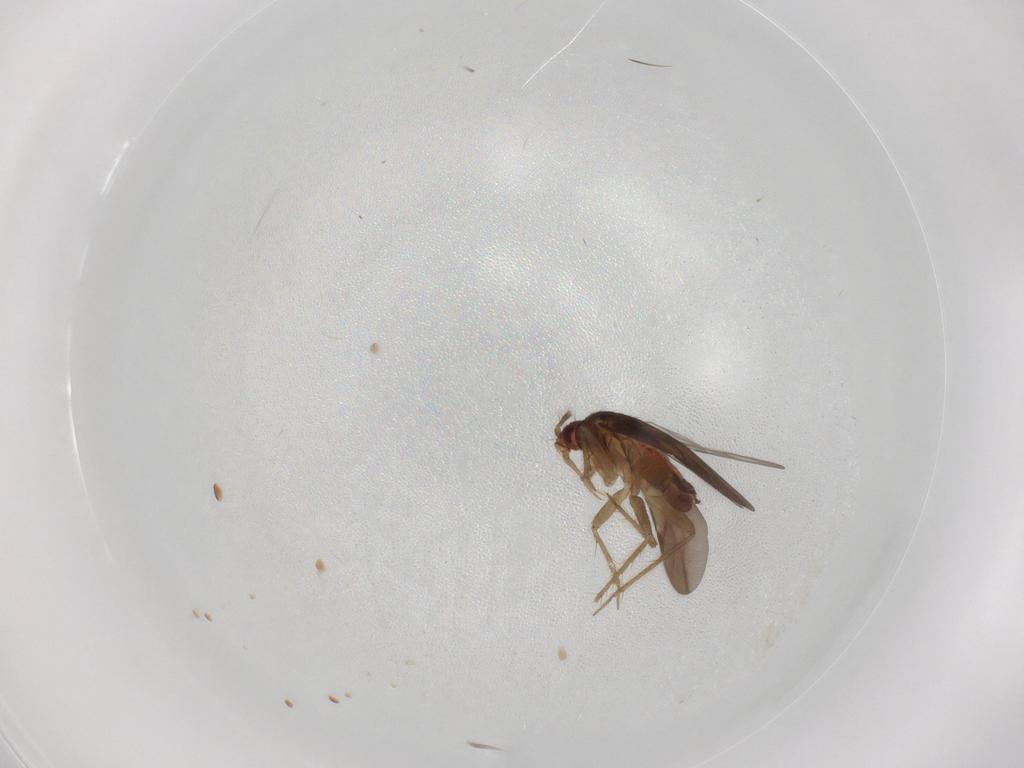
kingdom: Animalia
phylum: Arthropoda
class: Insecta
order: Hemiptera
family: Ceratocombidae
